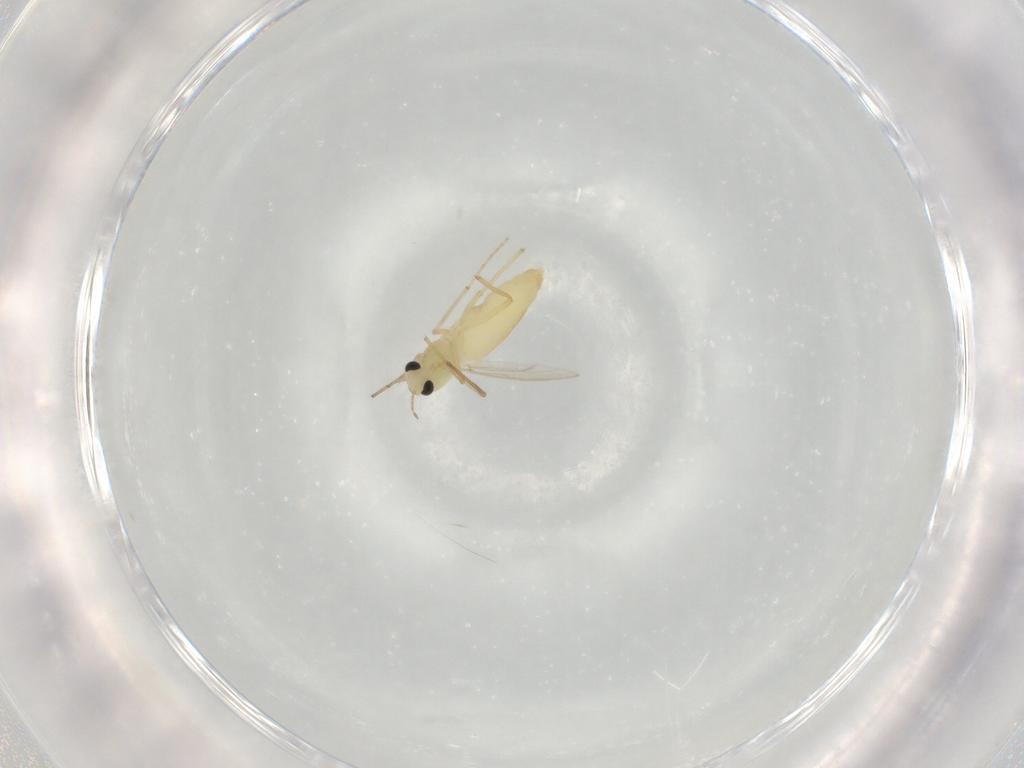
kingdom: Animalia
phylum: Arthropoda
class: Insecta
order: Diptera
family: Chironomidae
